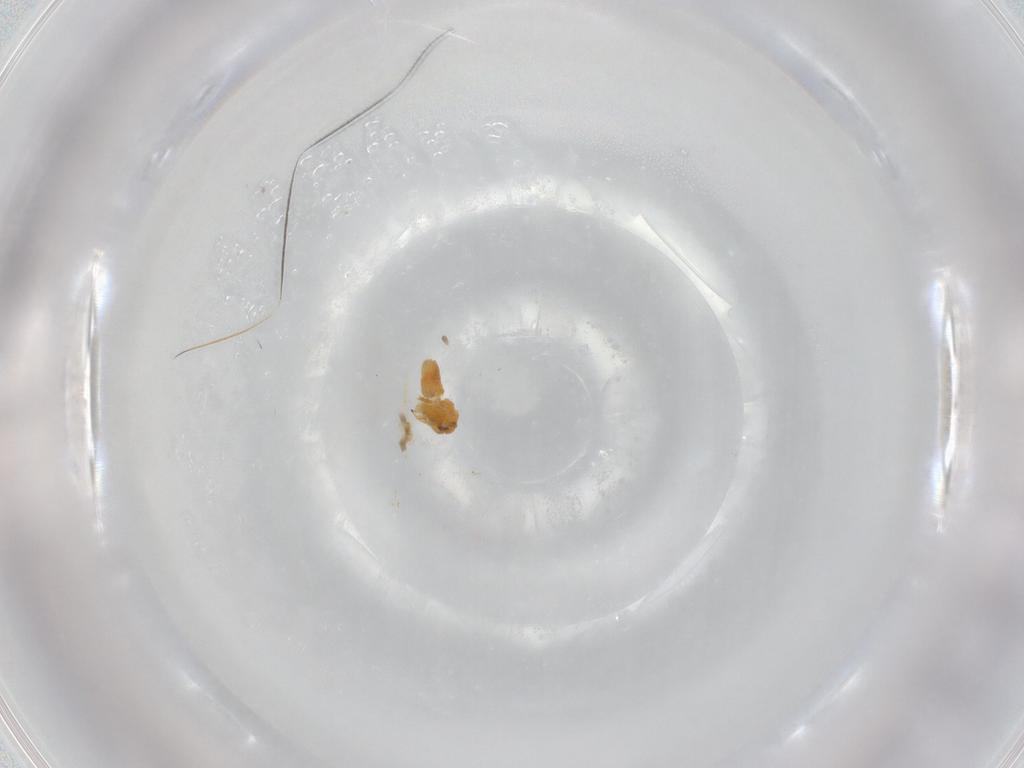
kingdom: Animalia
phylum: Arthropoda
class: Insecta
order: Hemiptera
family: Aleyrodidae
